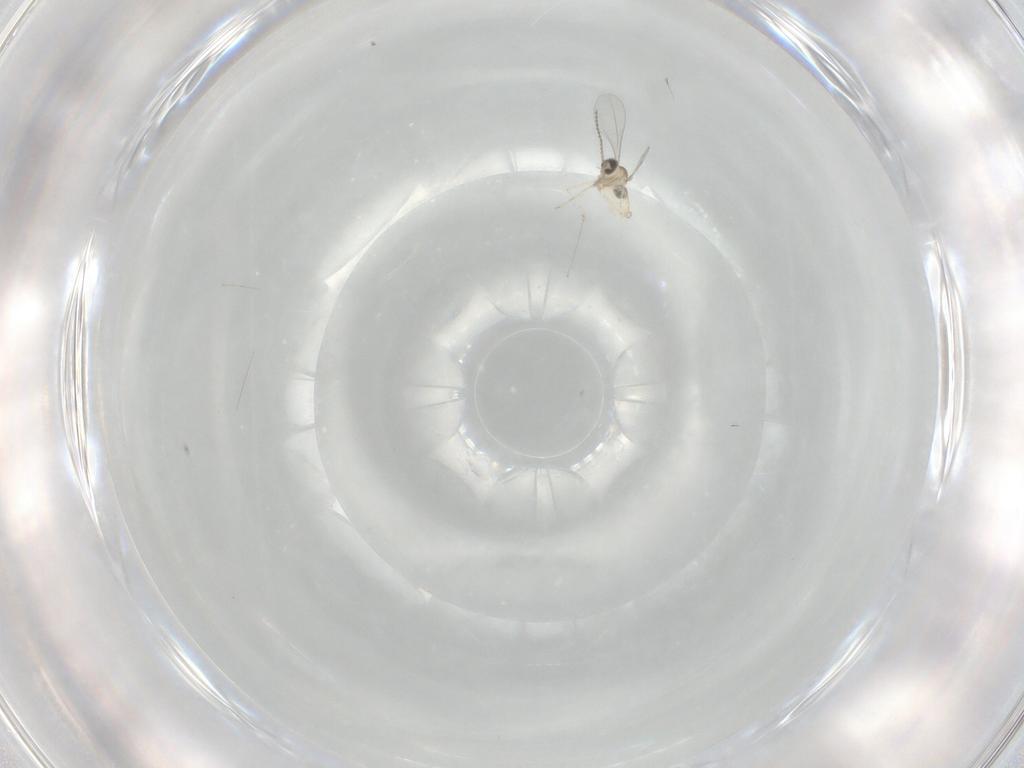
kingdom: Animalia
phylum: Arthropoda
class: Insecta
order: Diptera
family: Cecidomyiidae
